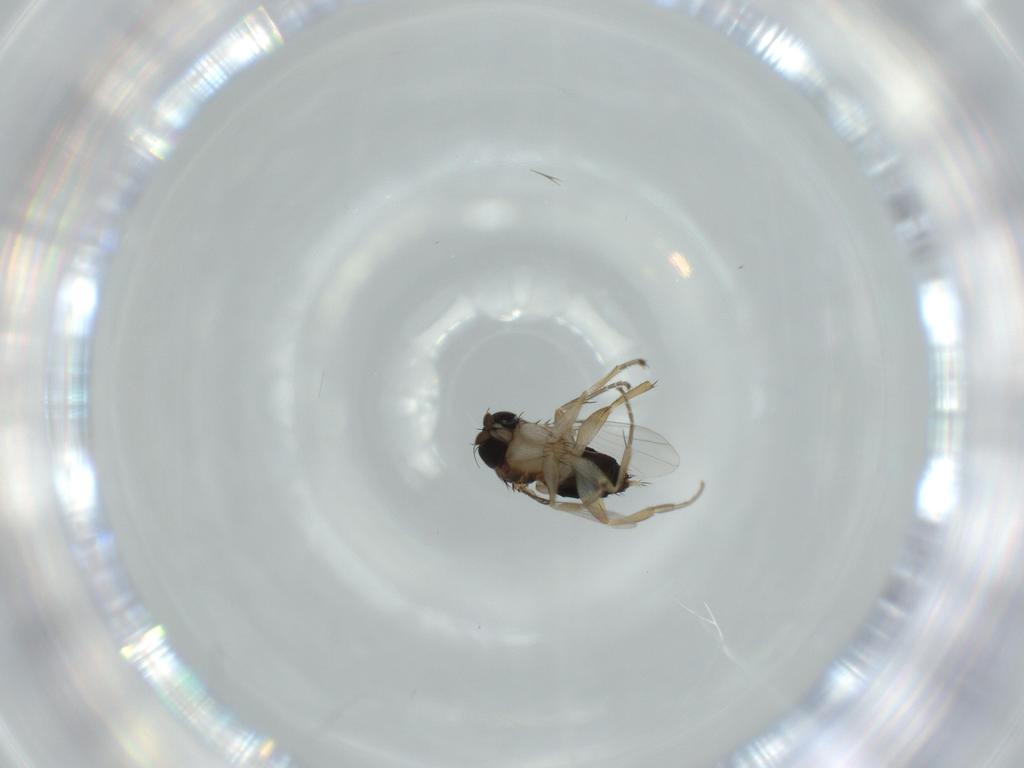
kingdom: Animalia
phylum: Arthropoda
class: Insecta
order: Diptera
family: Phoridae
